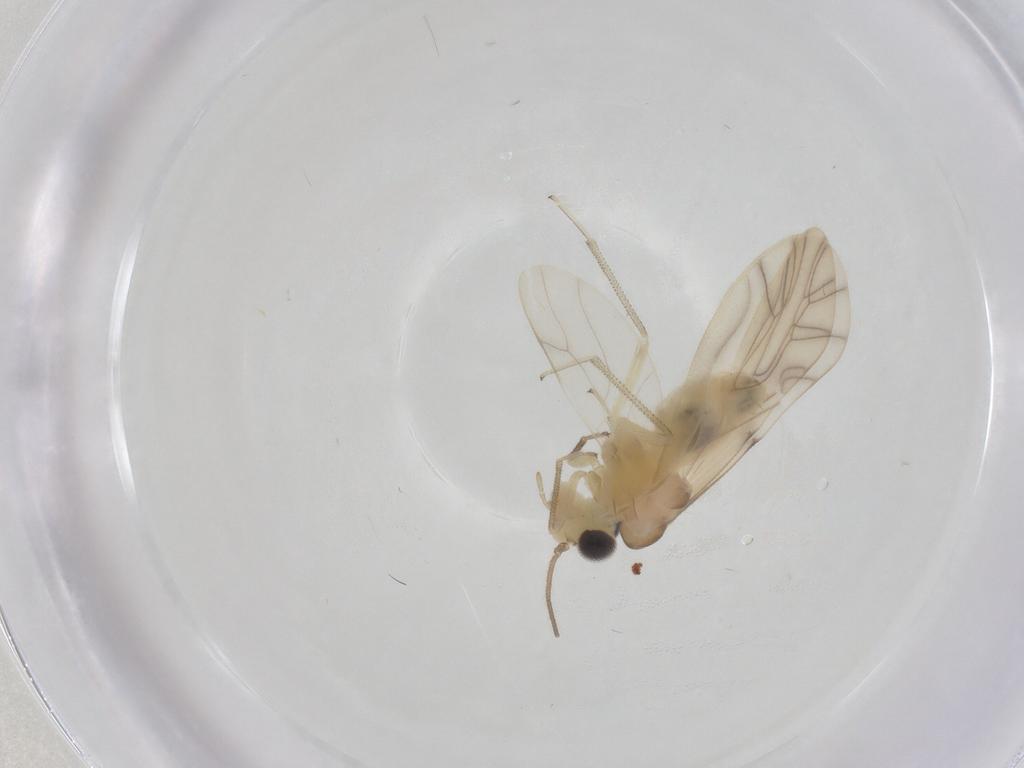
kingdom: Animalia
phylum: Arthropoda
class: Insecta
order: Psocodea
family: Caeciliusidae
